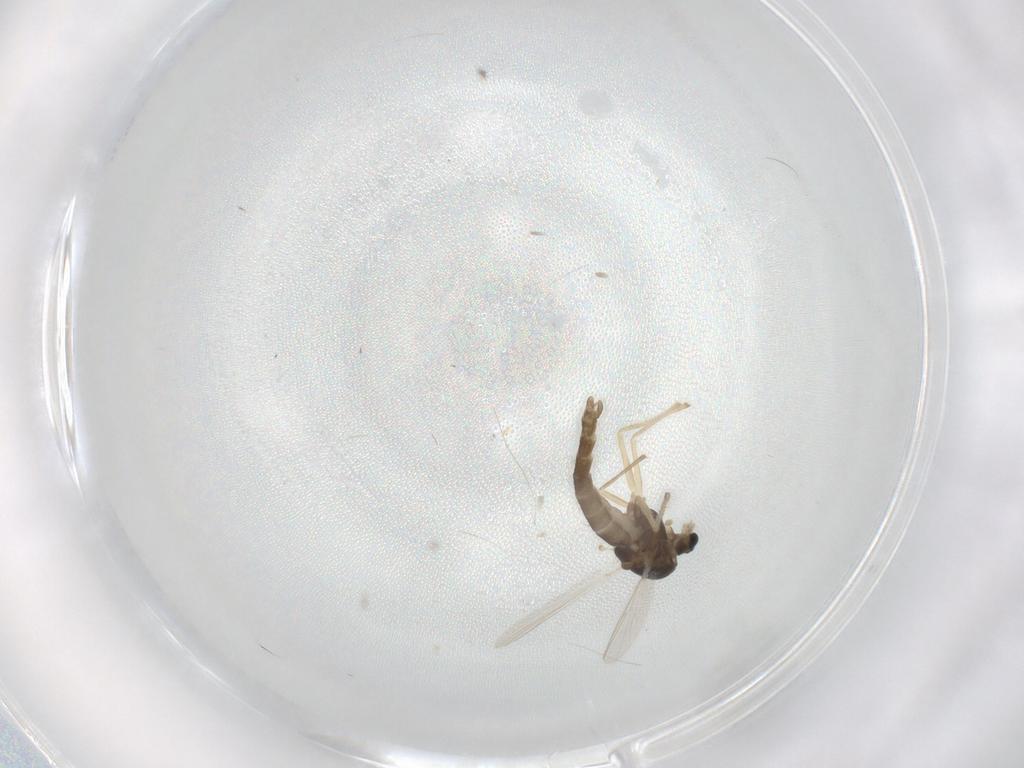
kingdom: Animalia
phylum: Arthropoda
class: Insecta
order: Diptera
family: Chironomidae
